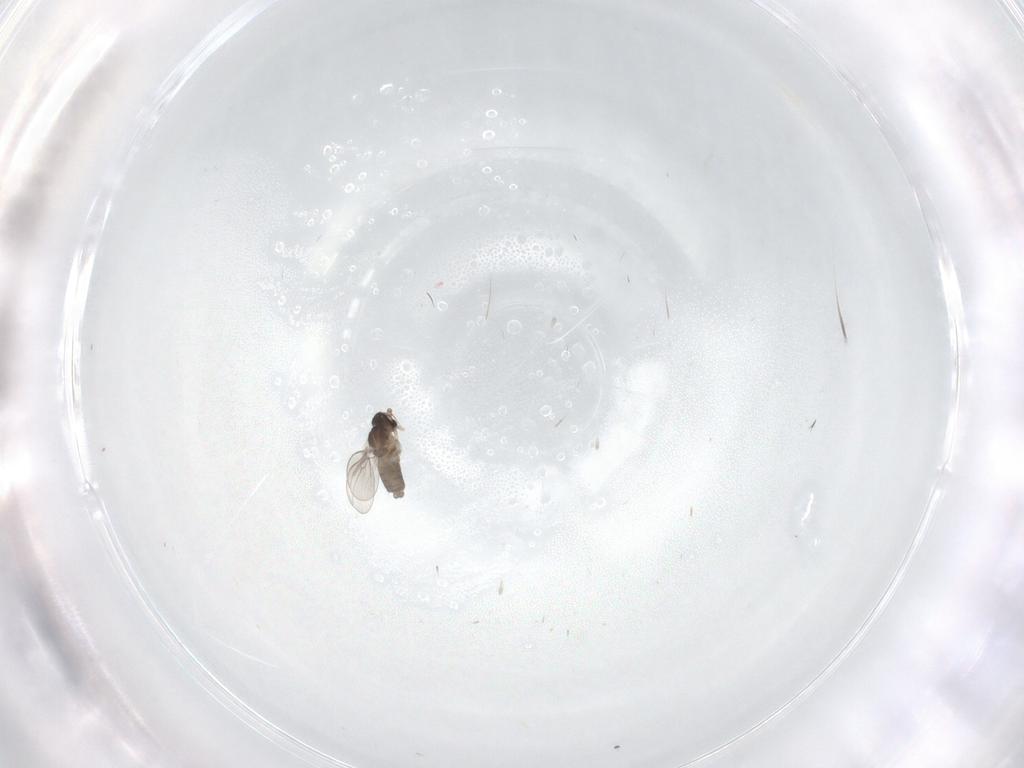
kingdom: Animalia
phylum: Arthropoda
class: Insecta
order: Diptera
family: Cecidomyiidae
